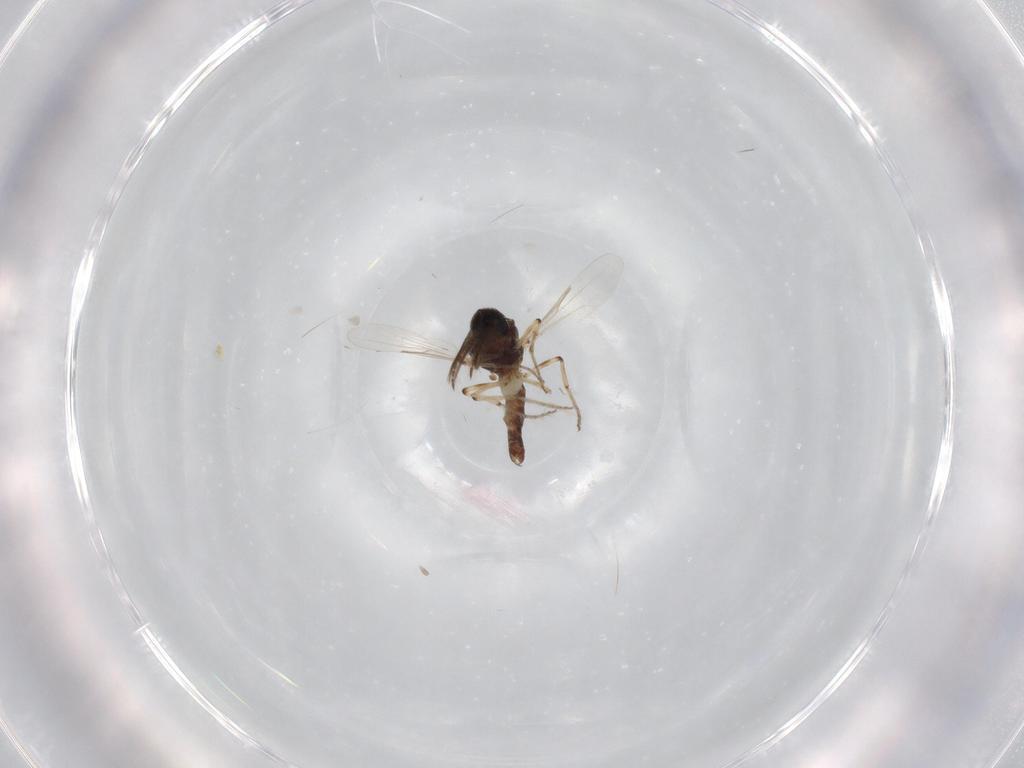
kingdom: Animalia
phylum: Arthropoda
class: Insecta
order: Diptera
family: Ceratopogonidae
